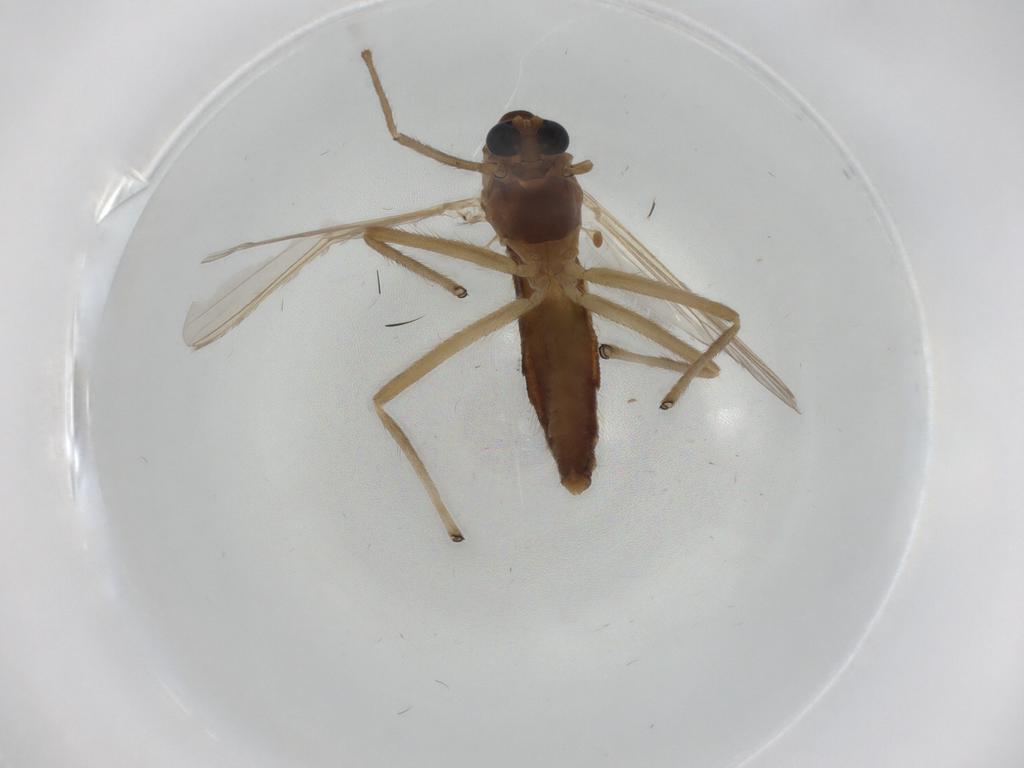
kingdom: Animalia
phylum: Arthropoda
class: Insecta
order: Diptera
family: Chironomidae
